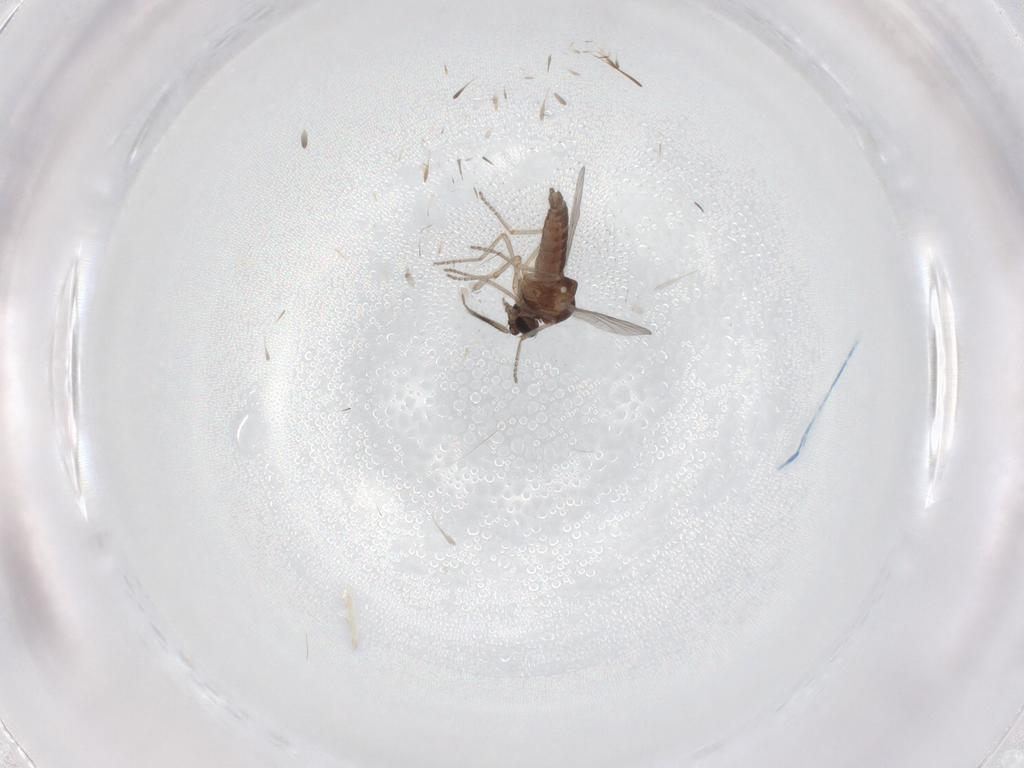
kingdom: Animalia
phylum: Arthropoda
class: Insecta
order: Diptera
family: Ceratopogonidae
